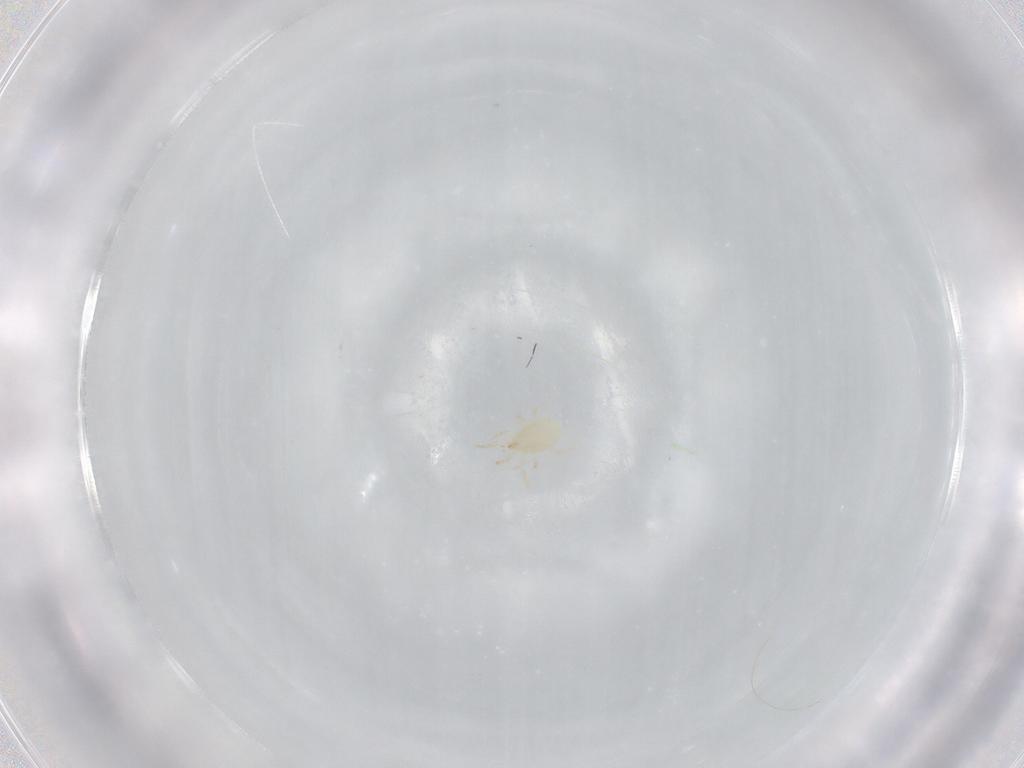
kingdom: Animalia
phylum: Arthropoda
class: Arachnida
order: Mesostigmata
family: Phytoseiidae
